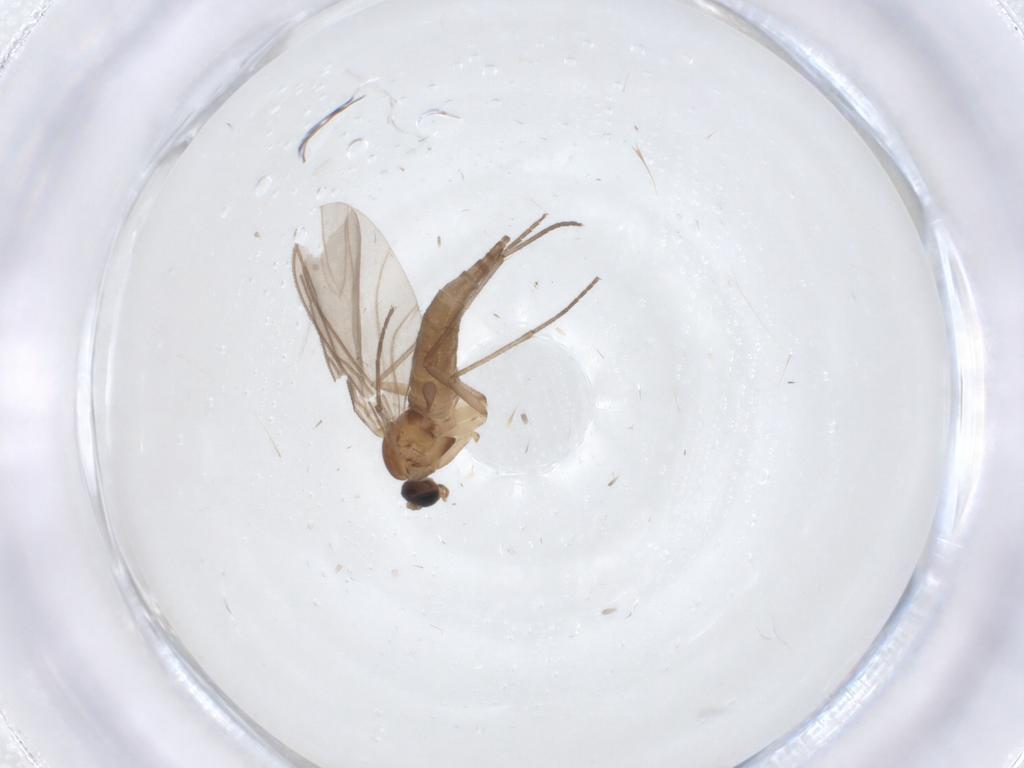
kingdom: Animalia
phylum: Arthropoda
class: Insecta
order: Diptera
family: Sciaridae
